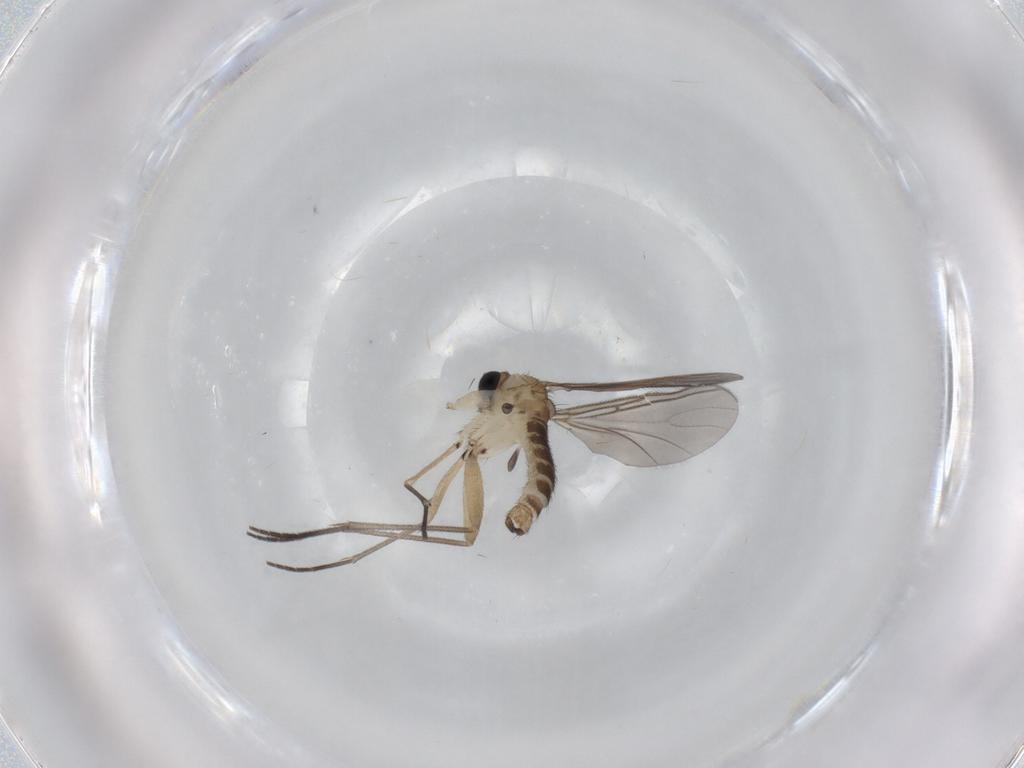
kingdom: Animalia
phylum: Arthropoda
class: Insecta
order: Diptera
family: Sciaridae
